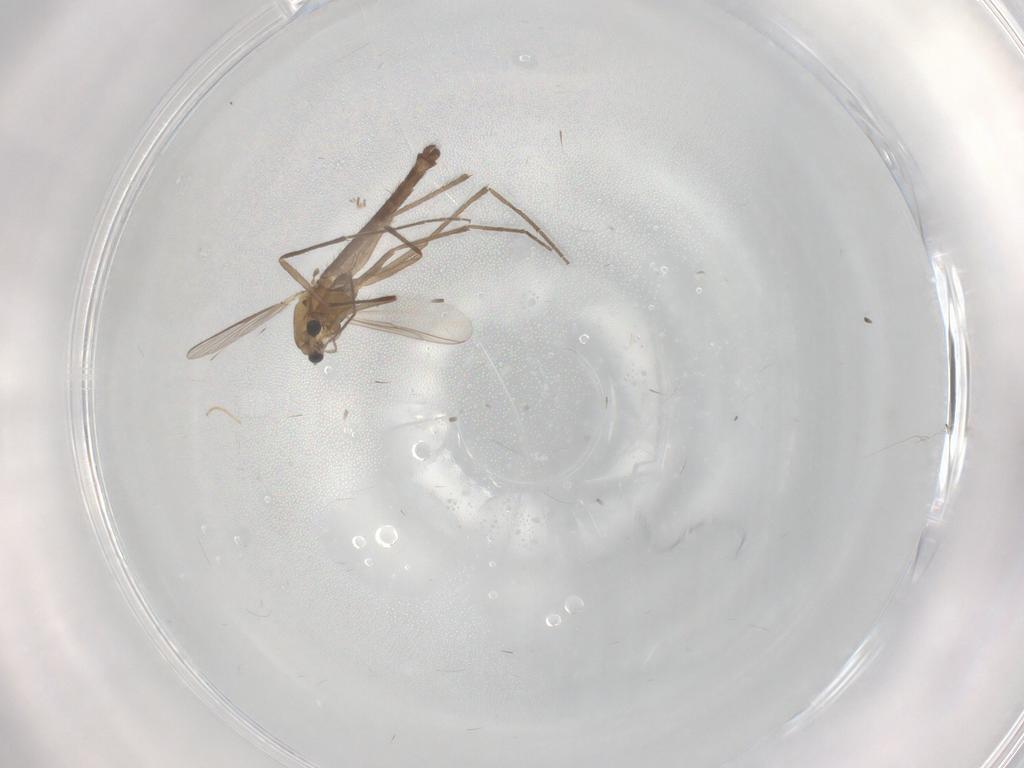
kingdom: Animalia
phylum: Arthropoda
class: Insecta
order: Diptera
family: Chironomidae
